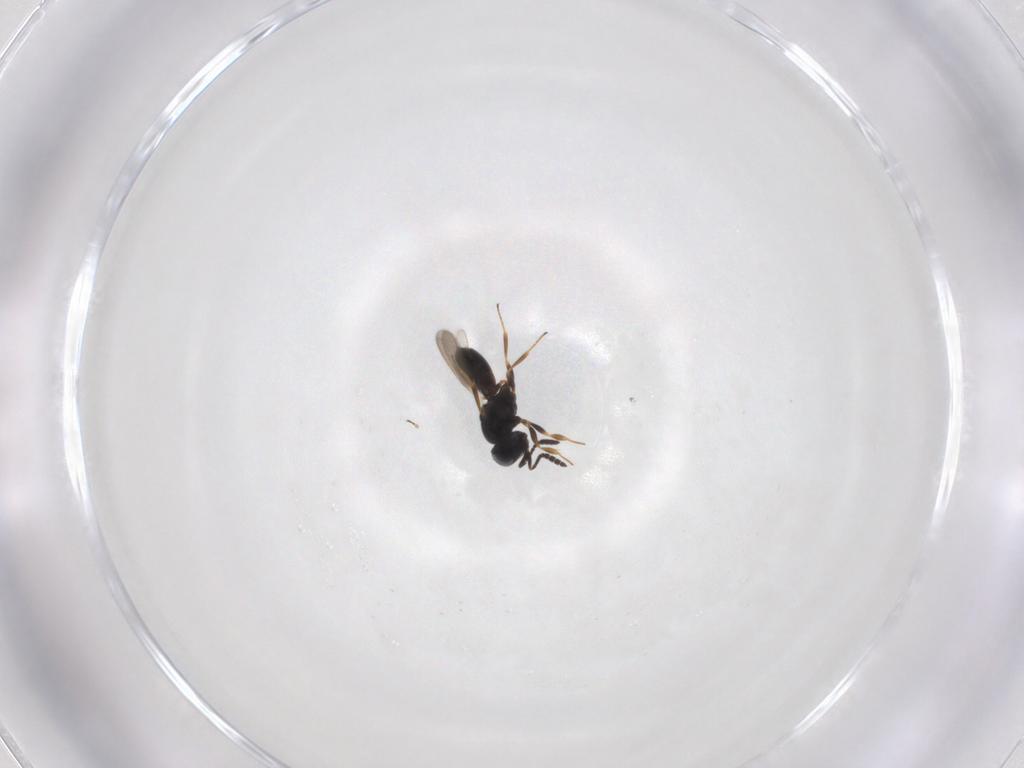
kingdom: Animalia
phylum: Arthropoda
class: Insecta
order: Hymenoptera
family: Scelionidae
